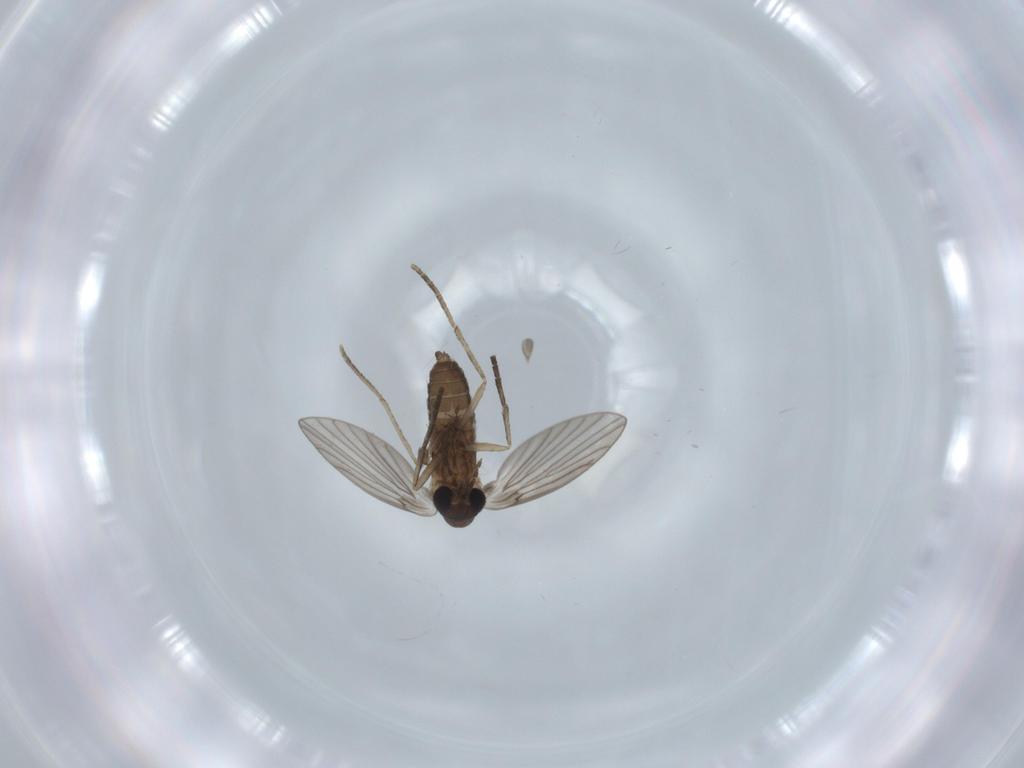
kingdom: Animalia
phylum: Arthropoda
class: Insecta
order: Diptera
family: Psychodidae
